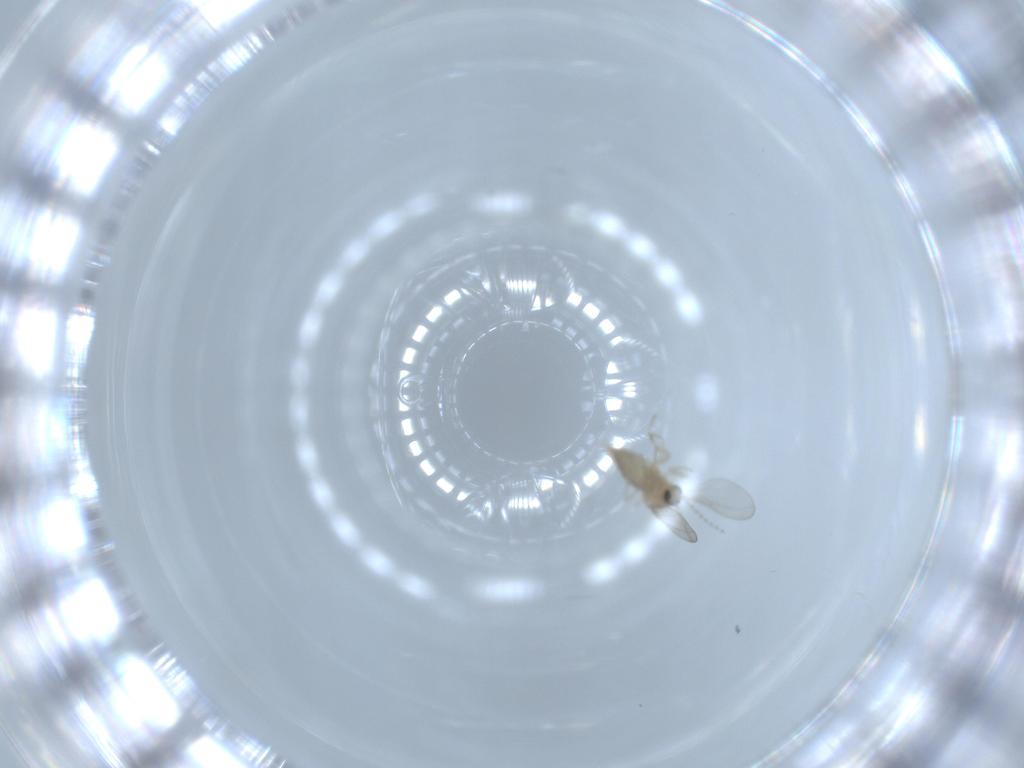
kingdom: Animalia
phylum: Arthropoda
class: Insecta
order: Diptera
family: Cecidomyiidae
